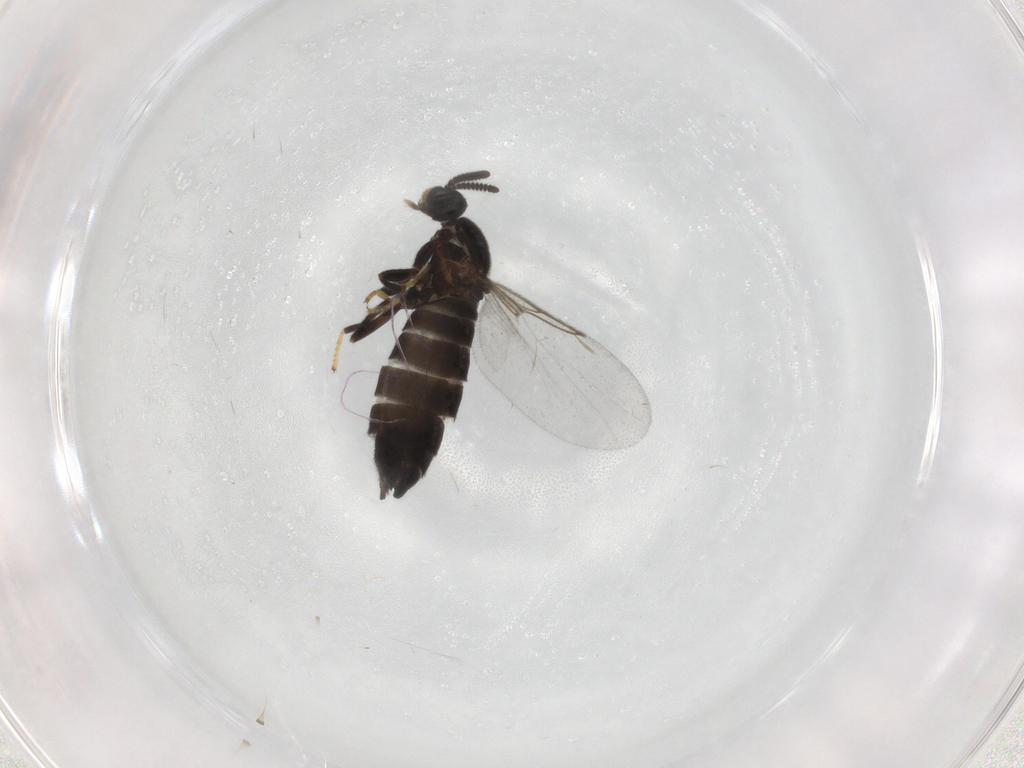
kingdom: Animalia
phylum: Arthropoda
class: Insecta
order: Diptera
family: Scatopsidae
